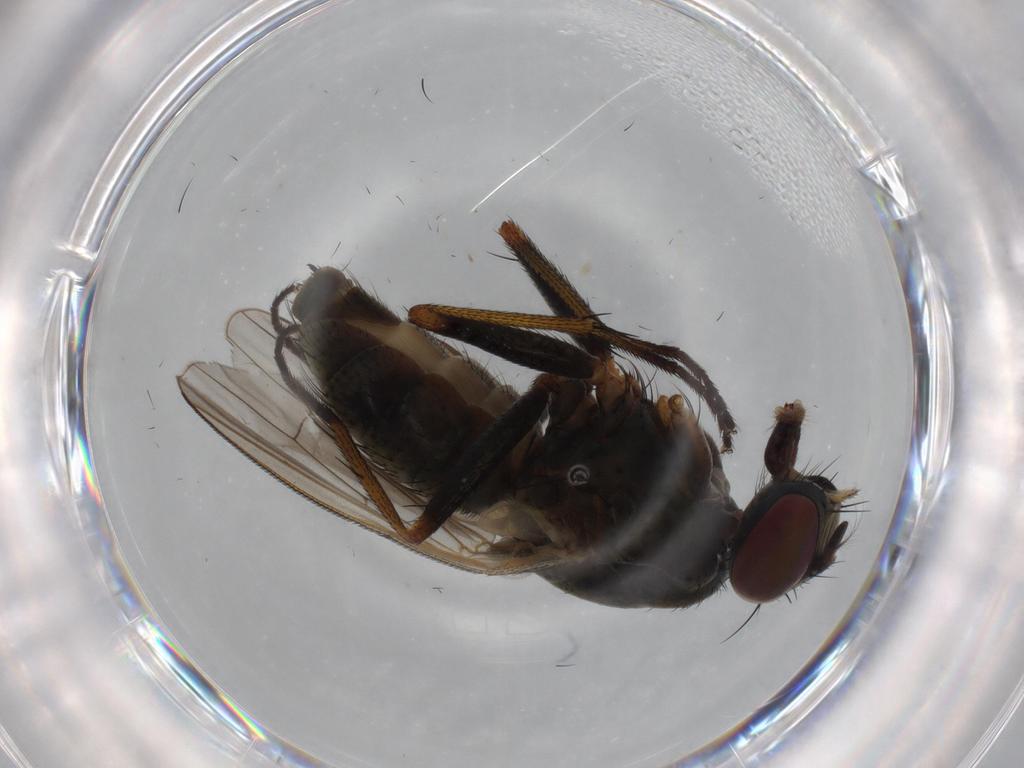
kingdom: Animalia
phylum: Arthropoda
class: Insecta
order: Diptera
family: Muscidae
